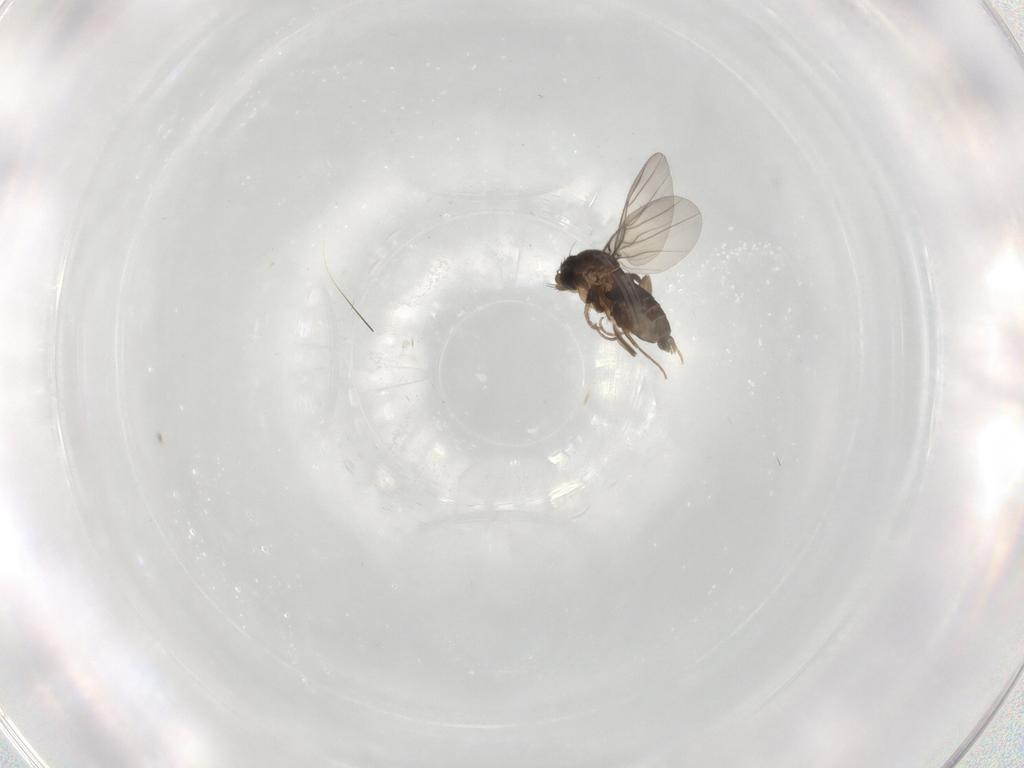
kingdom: Animalia
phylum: Arthropoda
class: Insecta
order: Diptera
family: Phoridae
